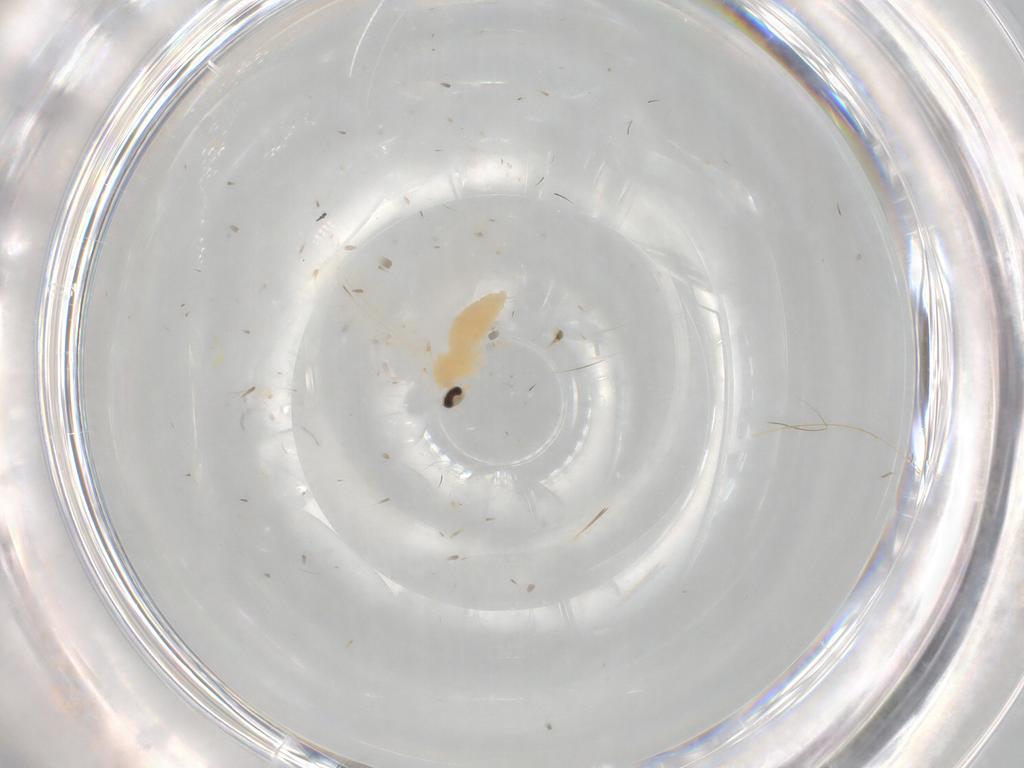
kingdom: Animalia
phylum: Arthropoda
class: Insecta
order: Diptera
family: Cecidomyiidae
